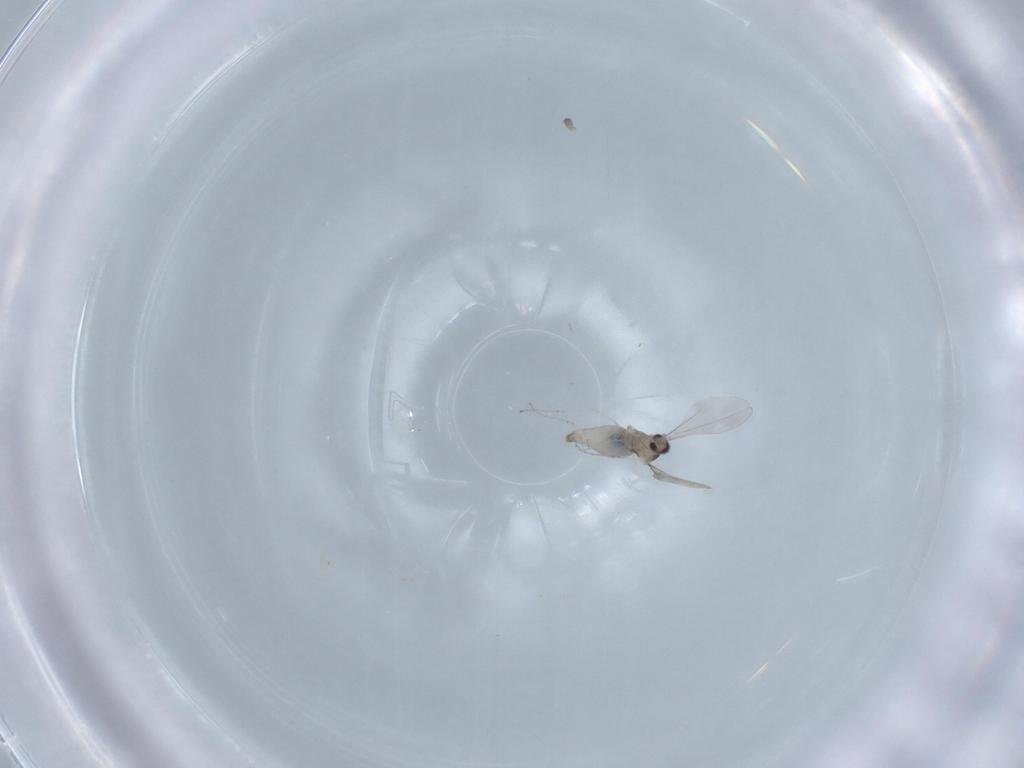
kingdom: Animalia
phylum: Arthropoda
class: Insecta
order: Diptera
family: Cecidomyiidae
